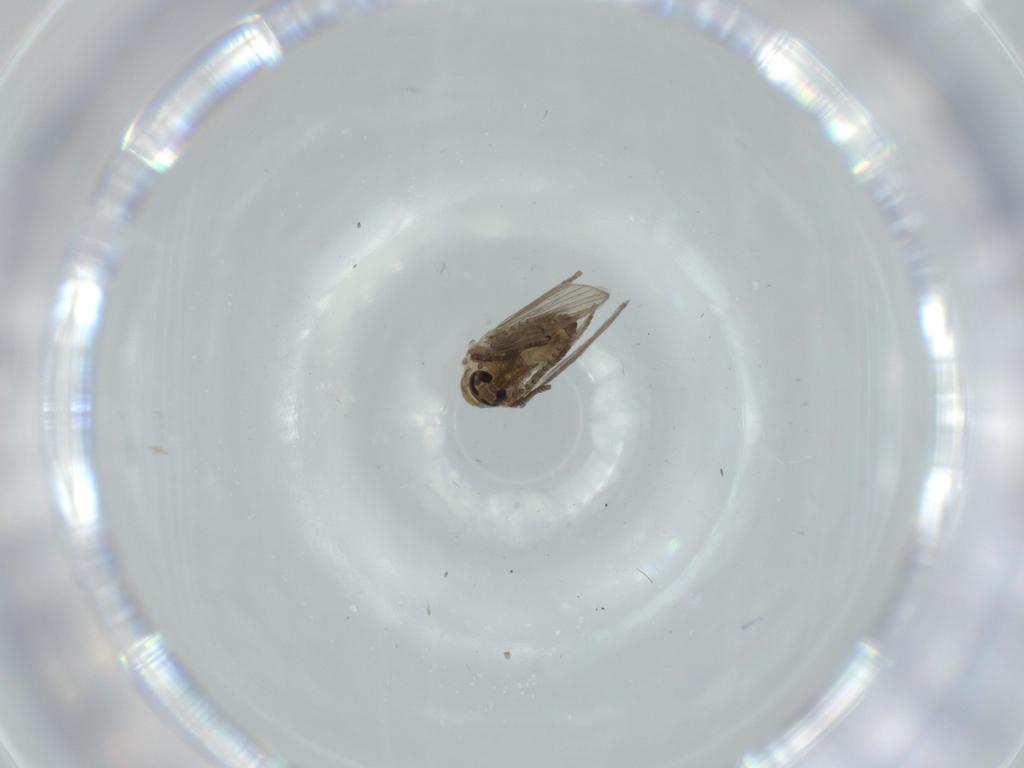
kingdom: Animalia
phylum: Arthropoda
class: Insecta
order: Diptera
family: Psychodidae
